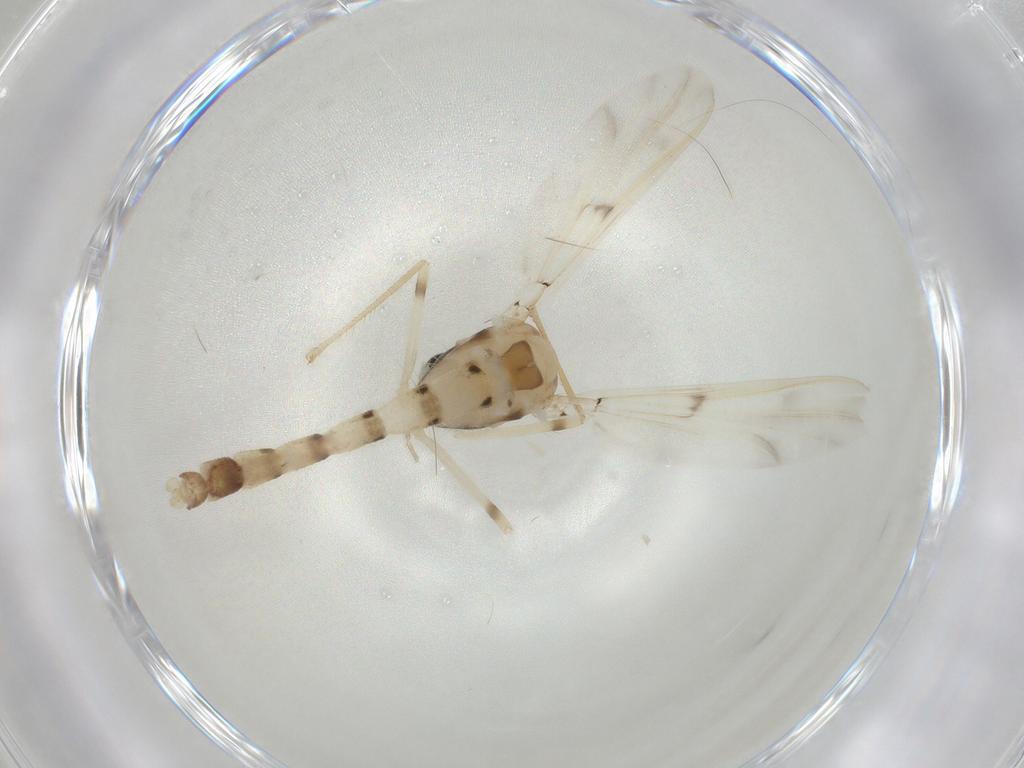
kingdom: Animalia
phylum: Arthropoda
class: Insecta
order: Diptera
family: Chironomidae
